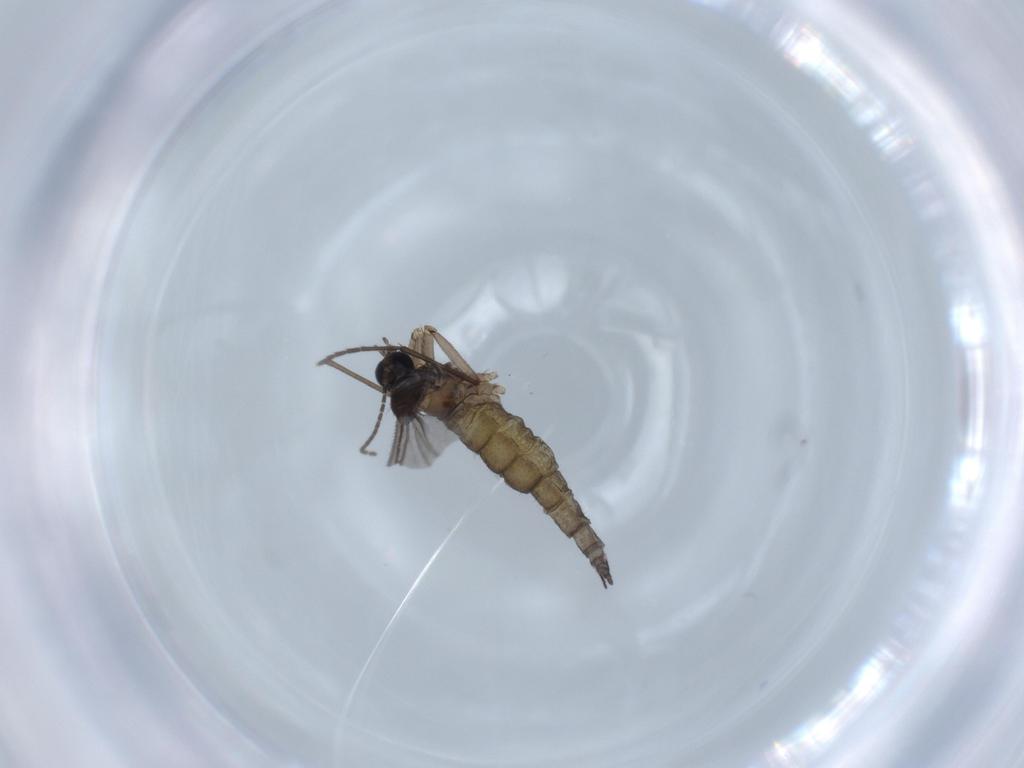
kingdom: Animalia
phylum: Arthropoda
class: Insecta
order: Diptera
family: Sciaridae
